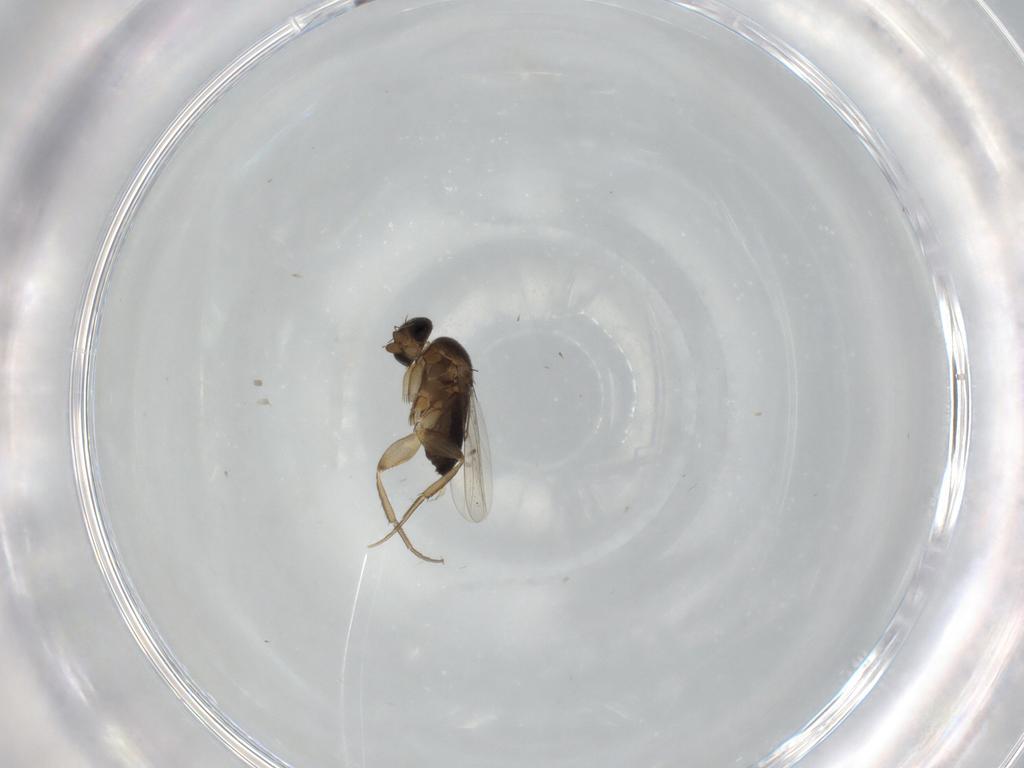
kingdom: Animalia
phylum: Arthropoda
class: Insecta
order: Diptera
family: Phoridae
